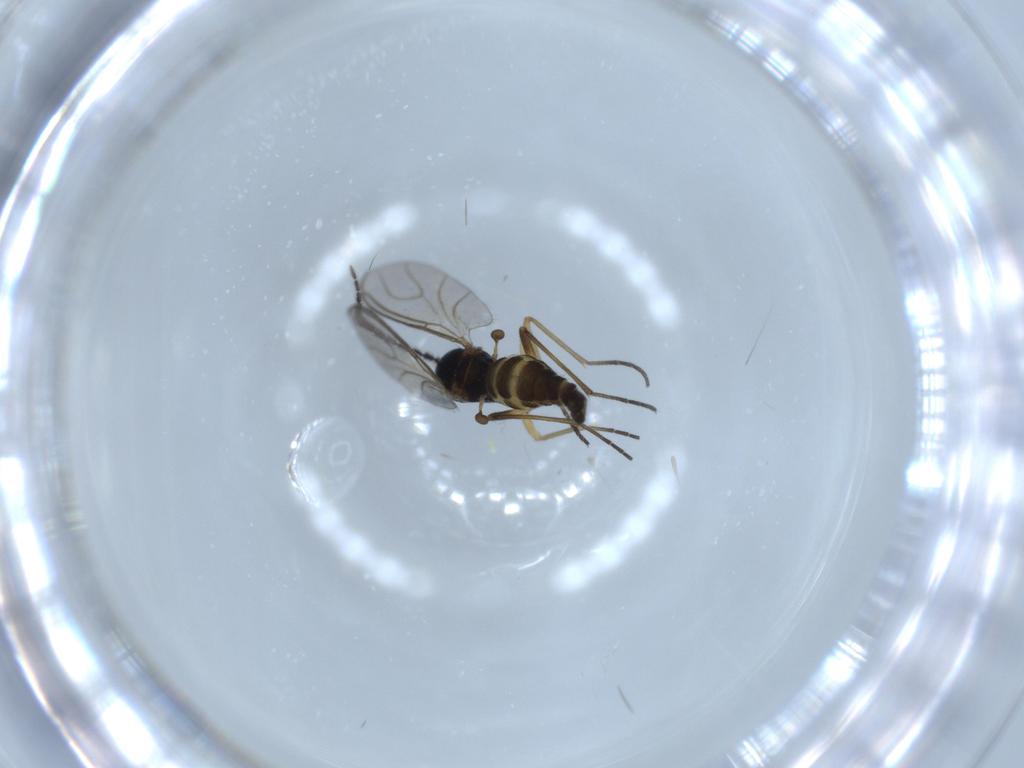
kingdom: Animalia
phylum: Arthropoda
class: Insecta
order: Diptera
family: Sciaridae
